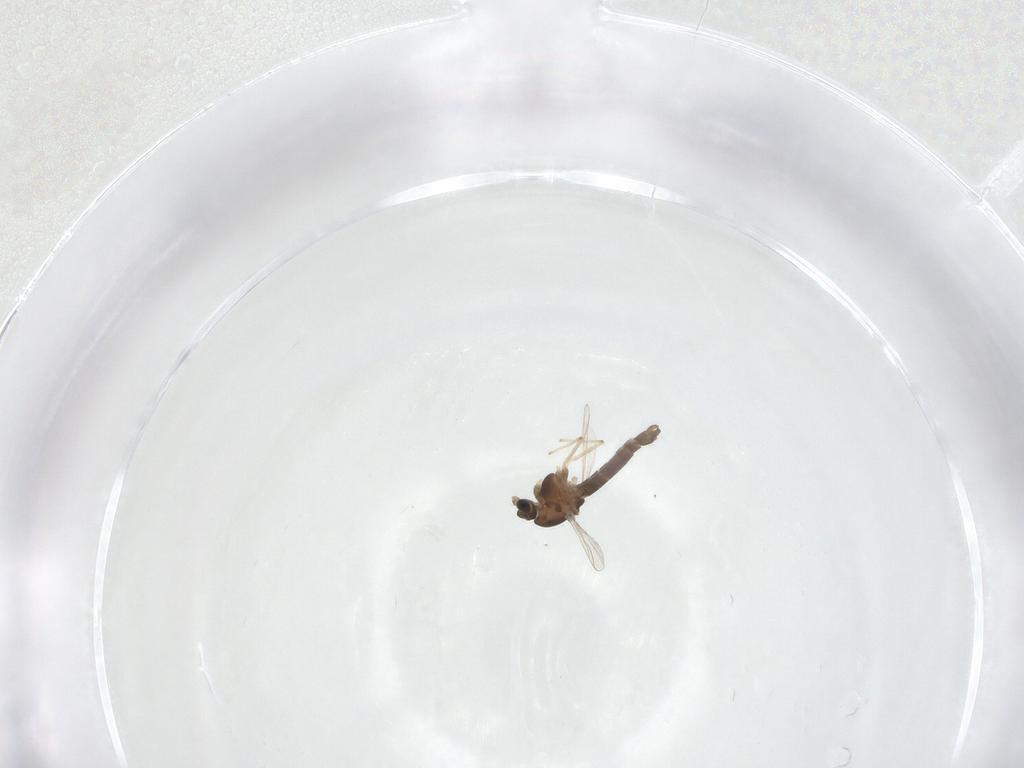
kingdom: Animalia
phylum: Arthropoda
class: Insecta
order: Diptera
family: Chironomidae
